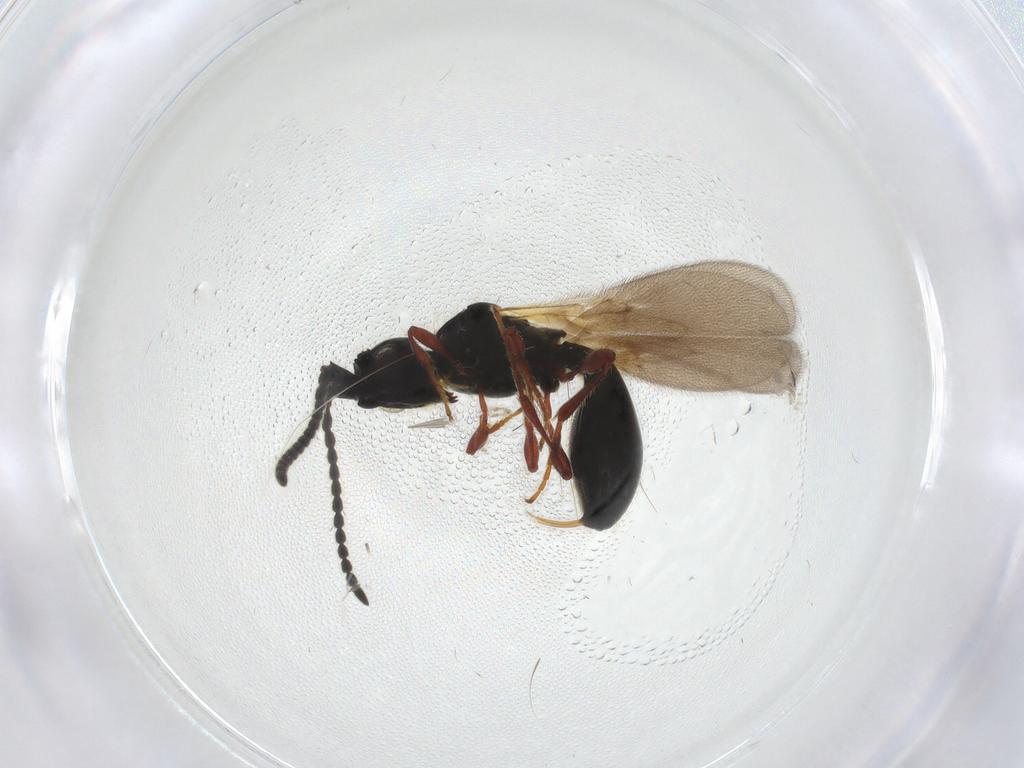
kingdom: Animalia
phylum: Arthropoda
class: Insecta
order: Hymenoptera
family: Diapriidae
